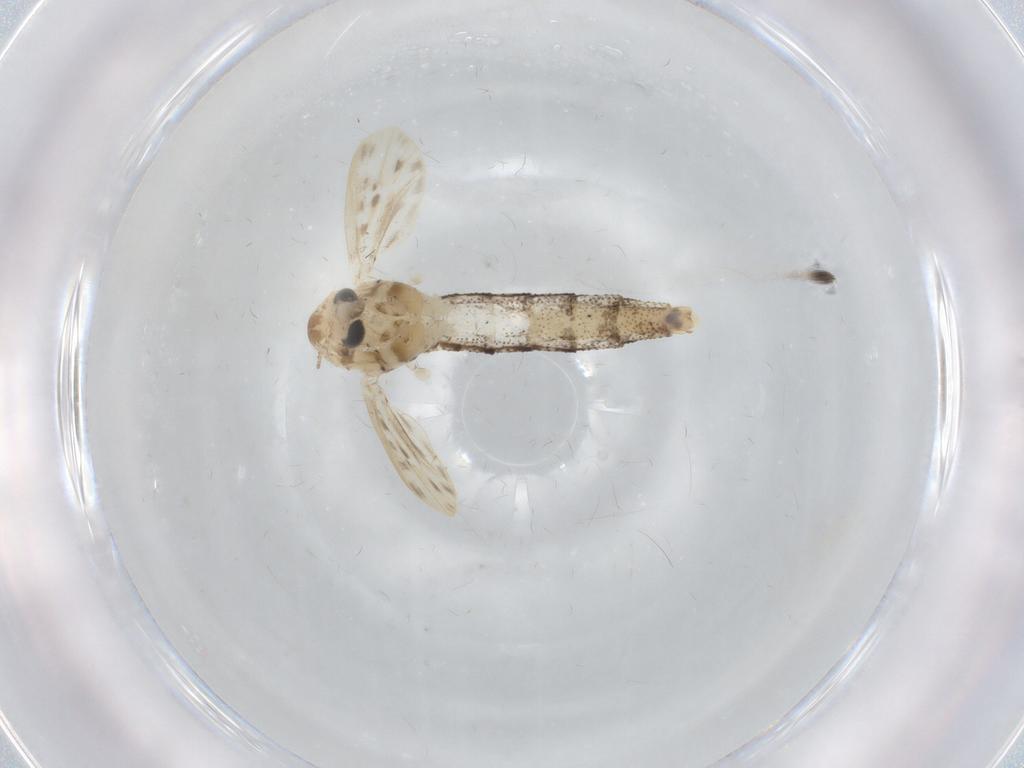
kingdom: Animalia
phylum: Arthropoda
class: Insecta
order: Diptera
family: Chaoboridae
